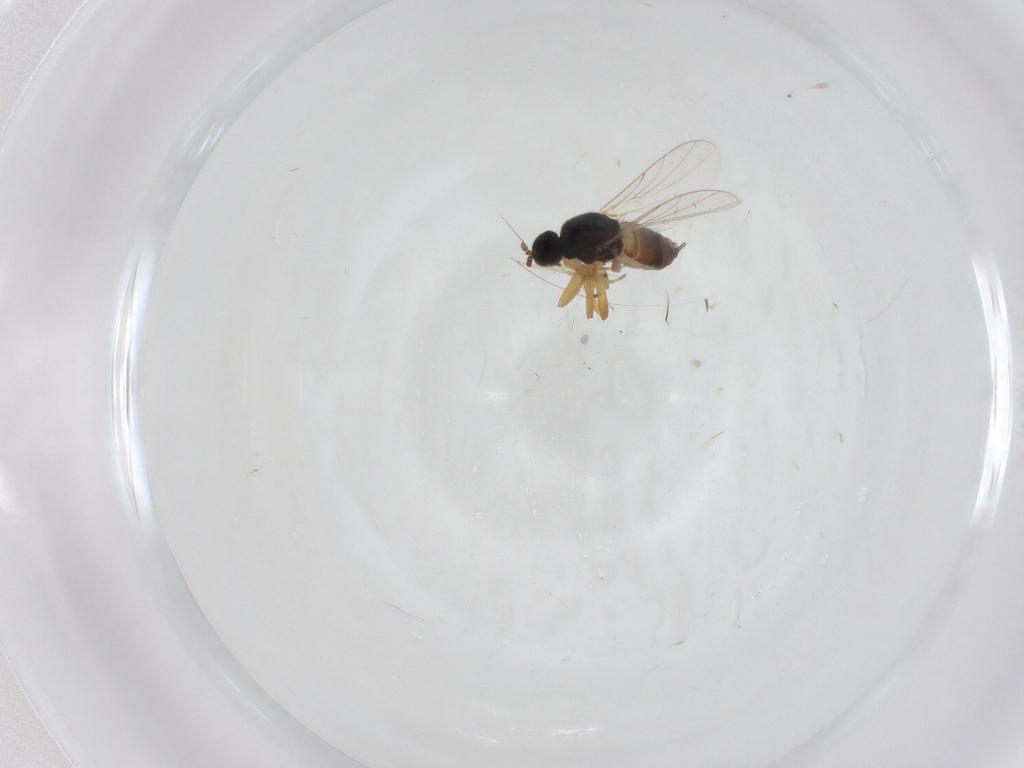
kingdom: Animalia
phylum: Arthropoda
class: Insecta
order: Diptera
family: Hybotidae
